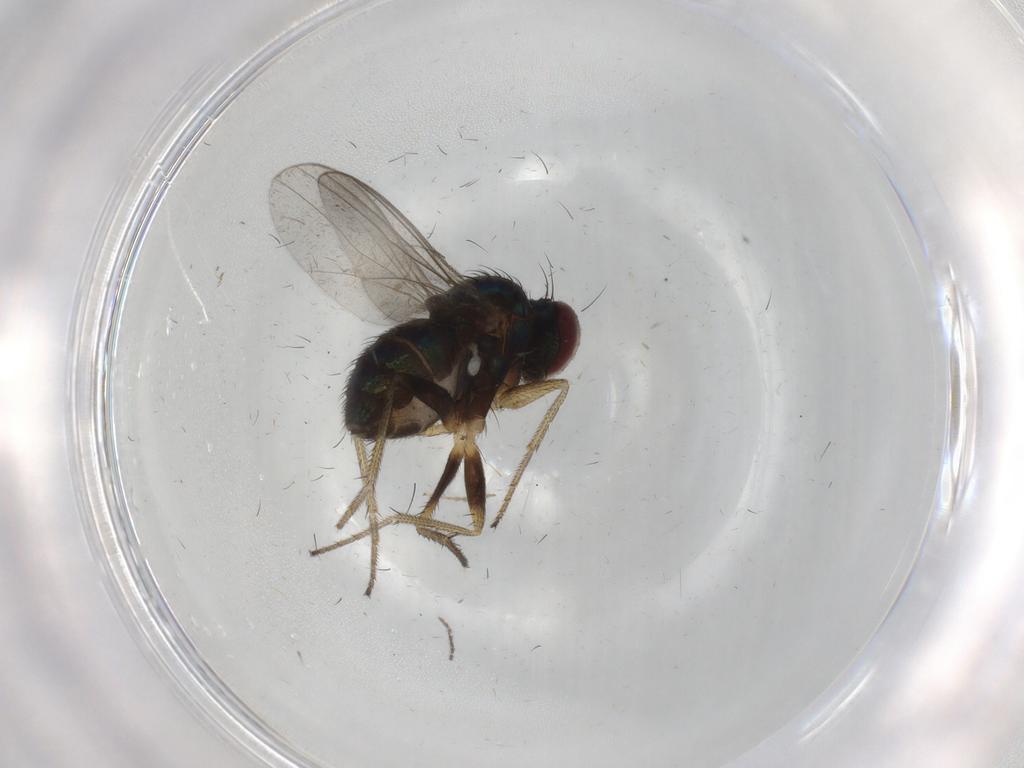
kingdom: Animalia
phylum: Arthropoda
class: Insecta
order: Diptera
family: Cecidomyiidae
